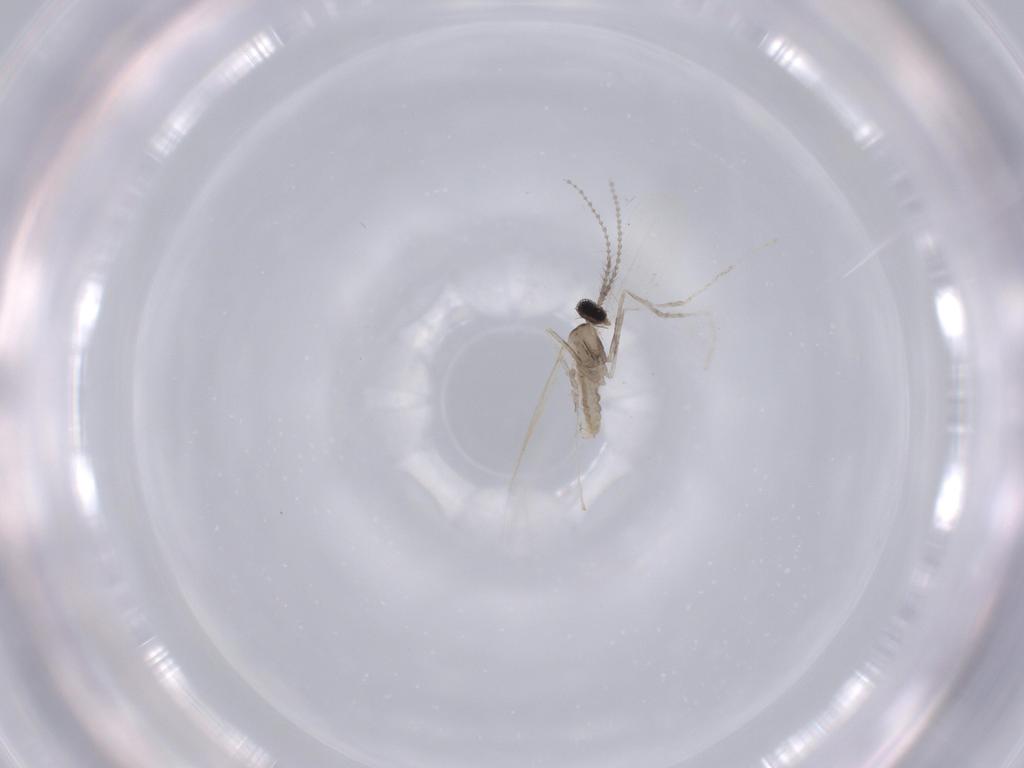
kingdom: Animalia
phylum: Arthropoda
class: Insecta
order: Diptera
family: Sciaridae
